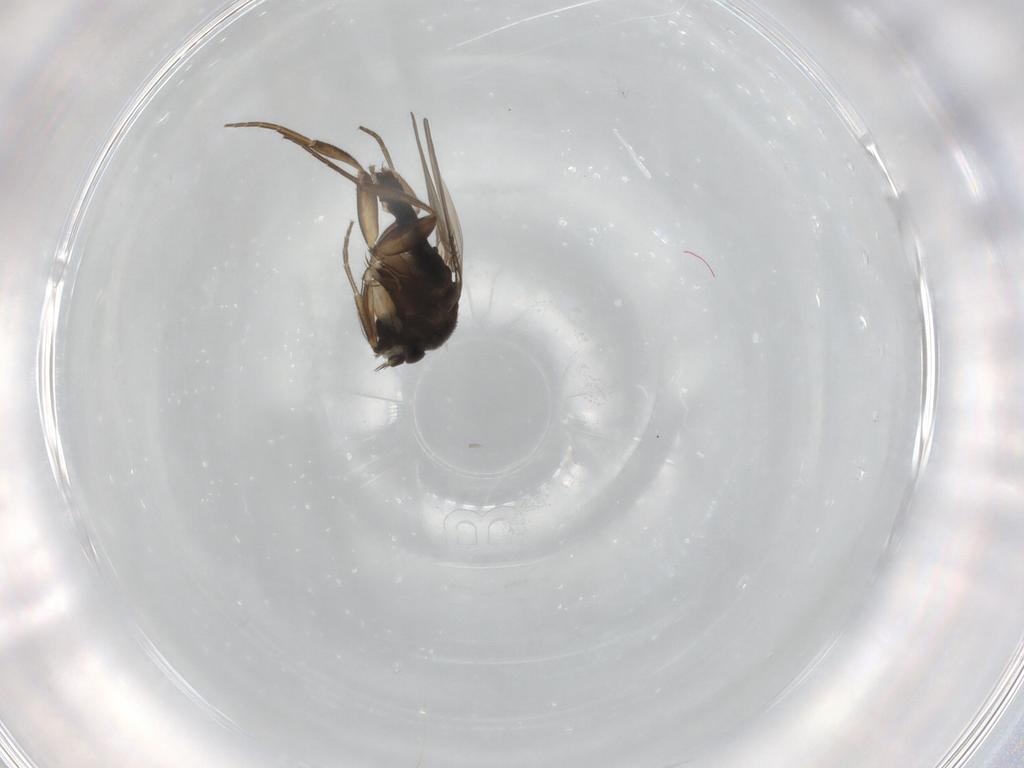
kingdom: Animalia
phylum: Arthropoda
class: Insecta
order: Diptera
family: Phoridae
